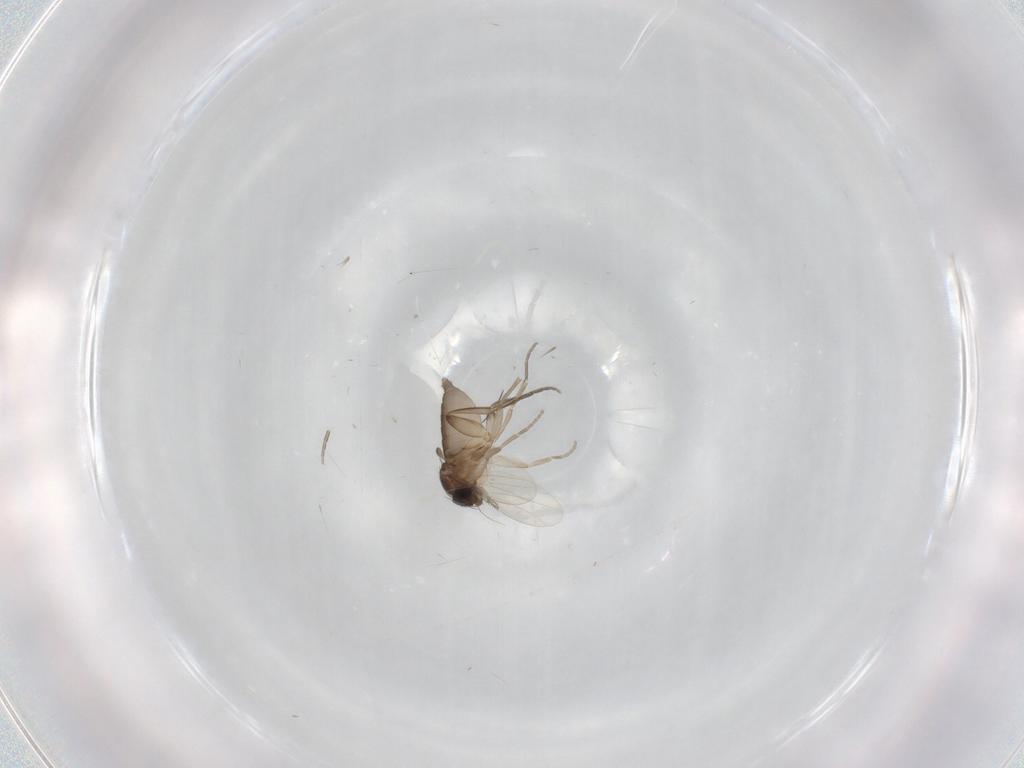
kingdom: Animalia
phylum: Arthropoda
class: Insecta
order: Diptera
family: Phoridae
